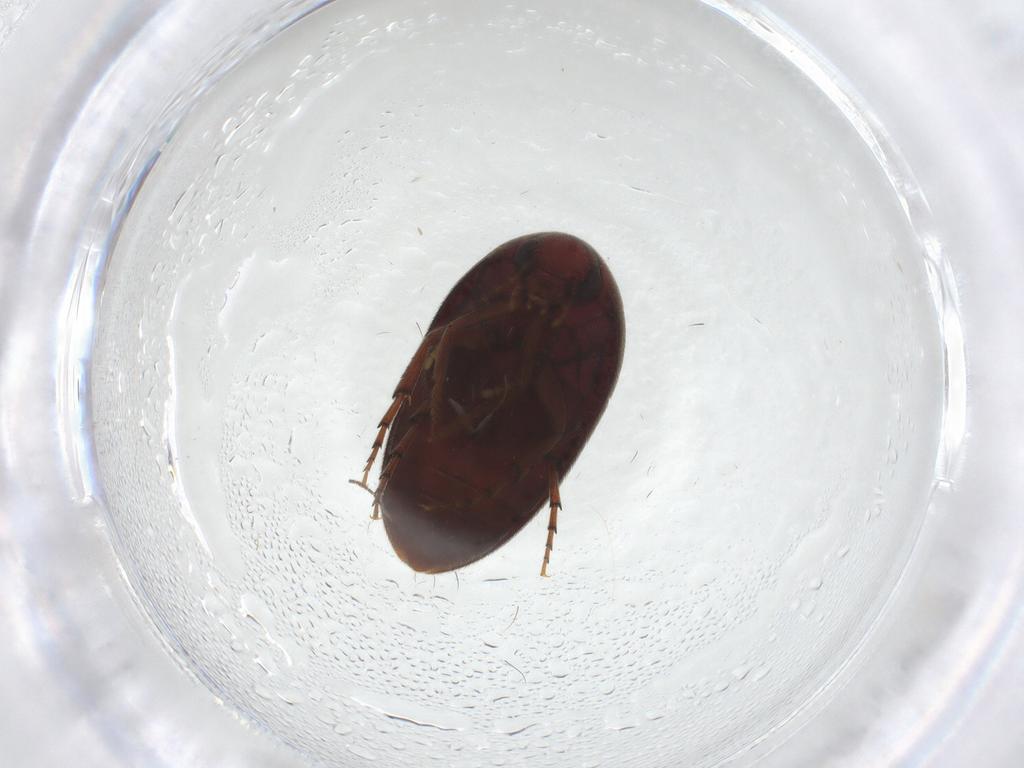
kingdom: Animalia
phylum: Arthropoda
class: Insecta
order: Coleoptera
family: Eucinetidae
